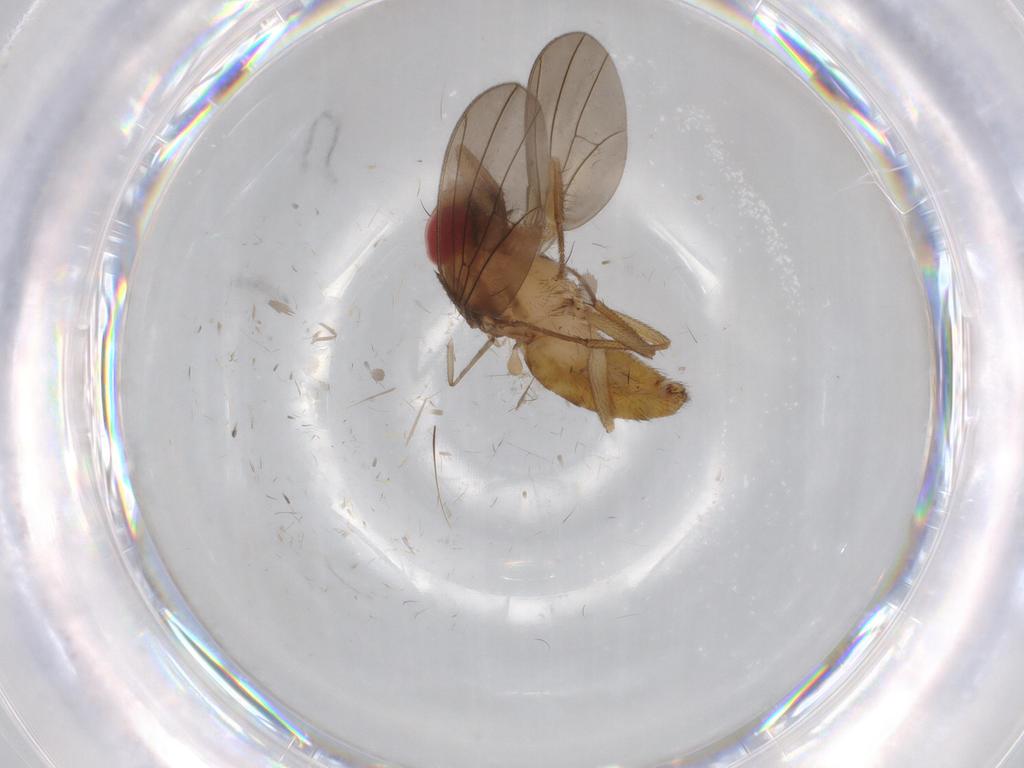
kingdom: Animalia
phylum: Arthropoda
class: Insecta
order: Diptera
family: Drosophilidae
